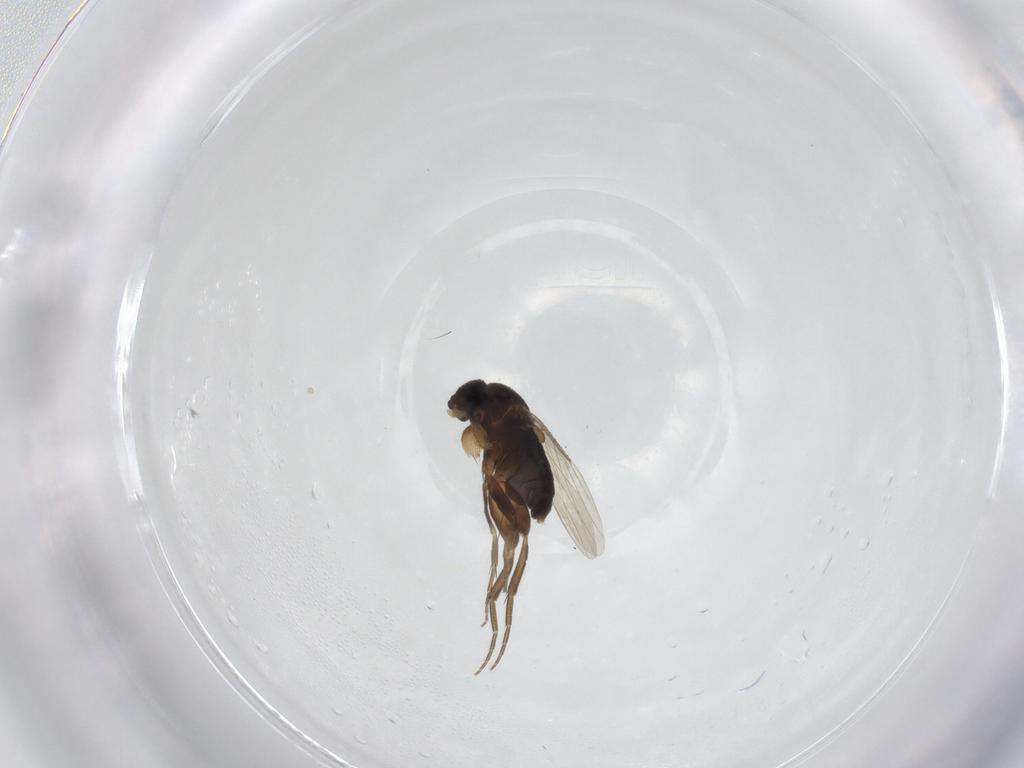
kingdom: Animalia
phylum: Arthropoda
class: Insecta
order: Diptera
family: Phoridae
